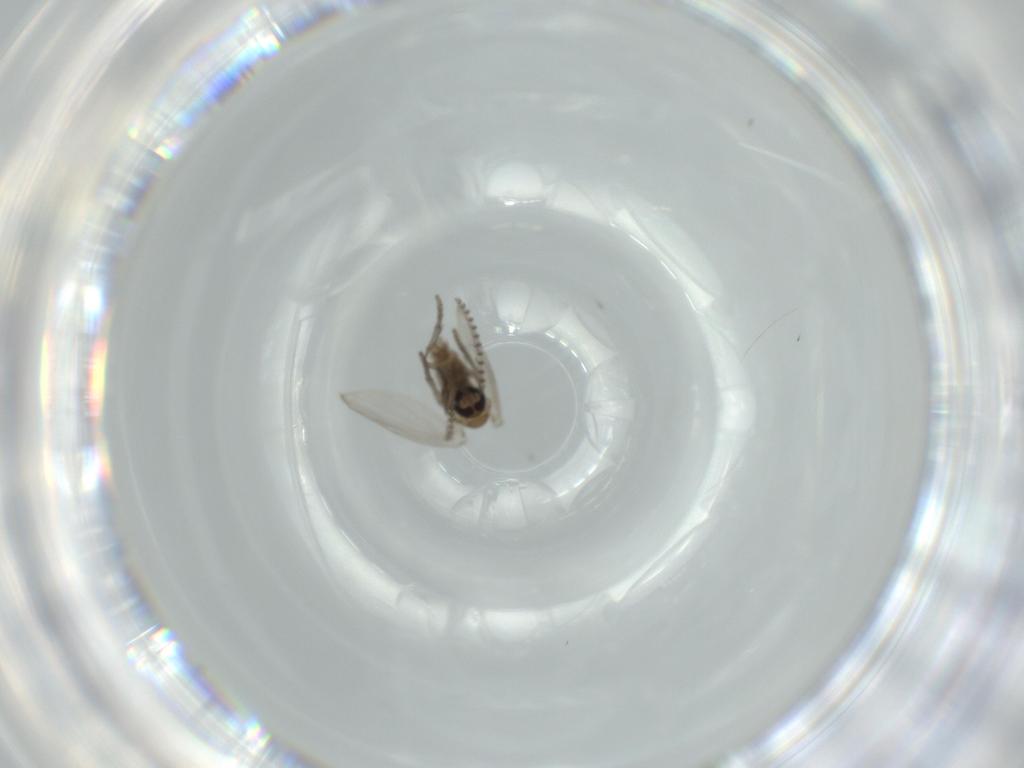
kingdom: Animalia
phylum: Arthropoda
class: Insecta
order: Diptera
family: Psychodidae
